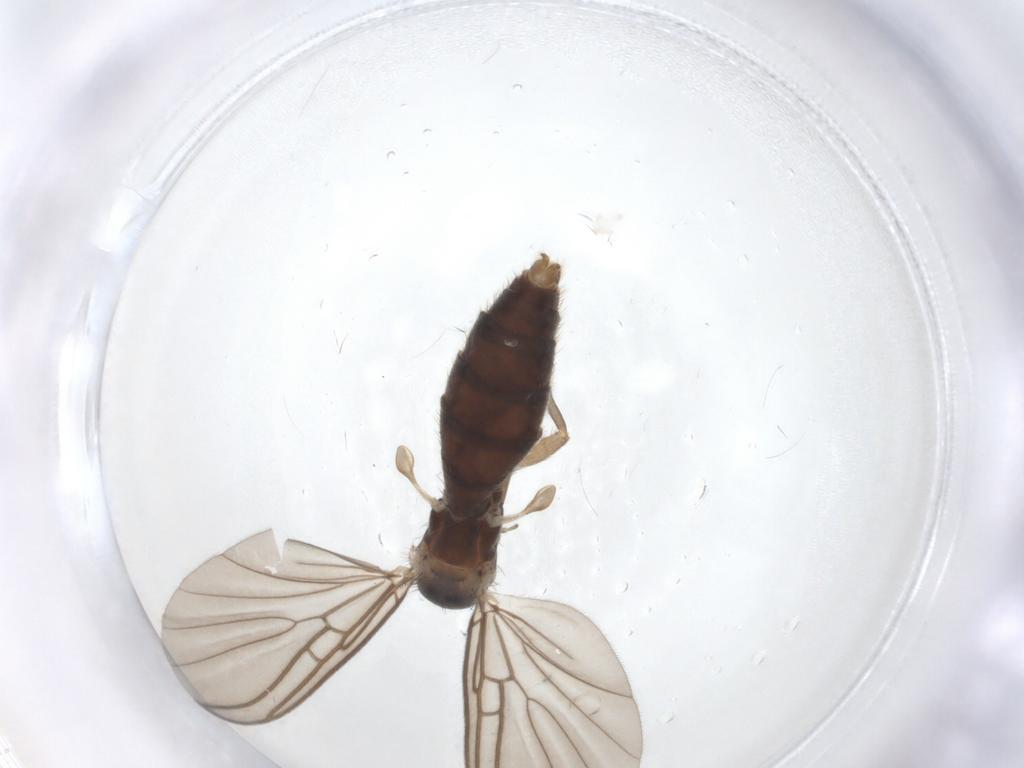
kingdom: Animalia
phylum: Arthropoda
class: Insecta
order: Diptera
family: Mycetophilidae
